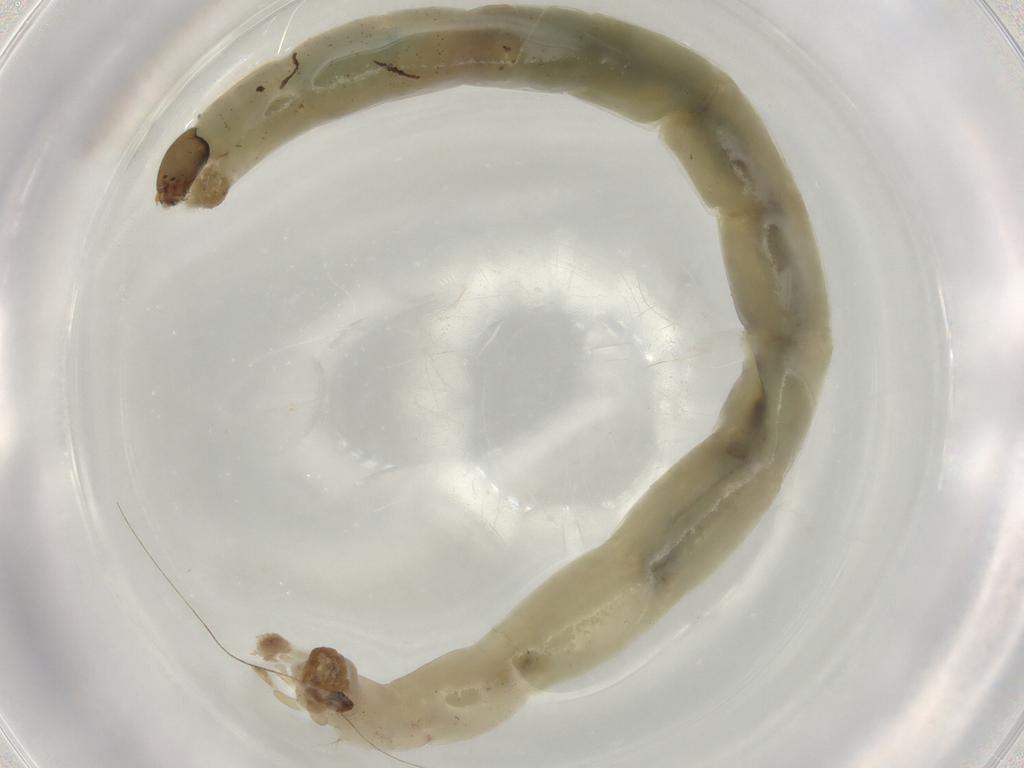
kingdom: Animalia
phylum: Arthropoda
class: Insecta
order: Diptera
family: Chironomidae
